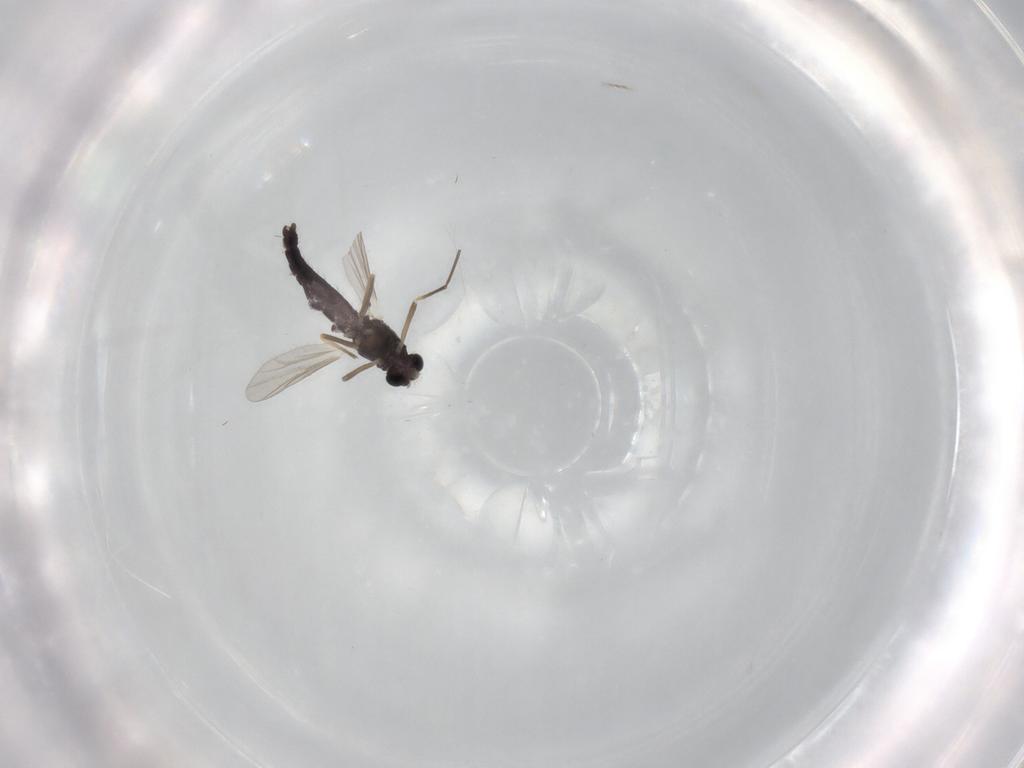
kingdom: Animalia
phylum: Arthropoda
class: Insecta
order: Diptera
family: Chironomidae
